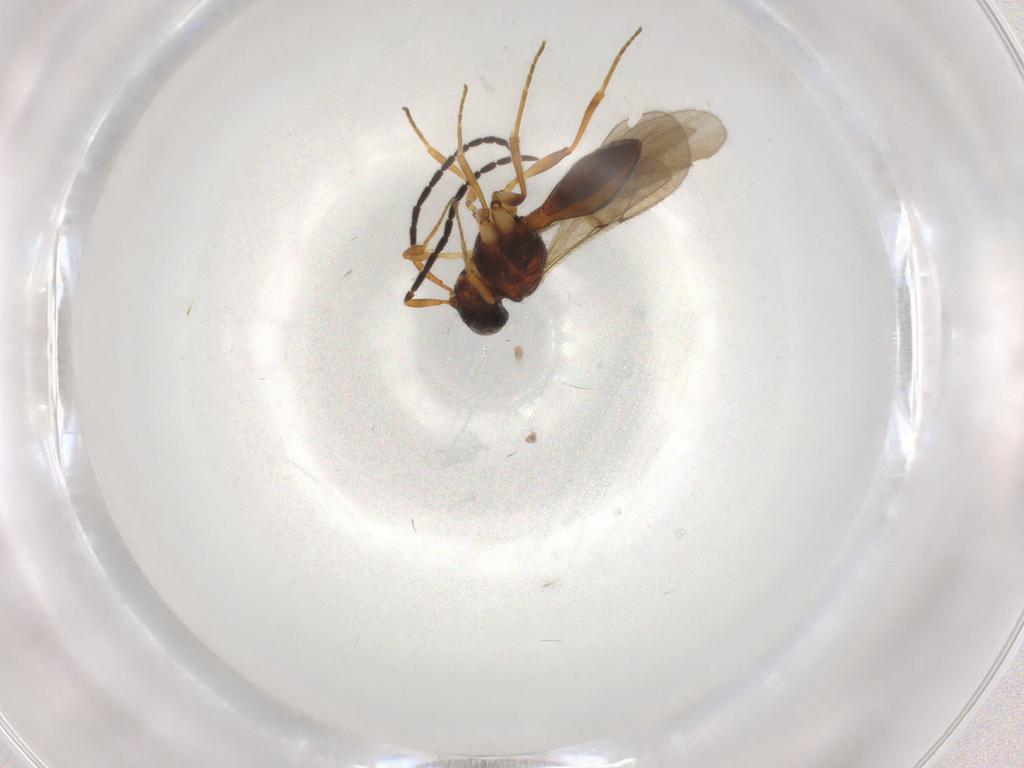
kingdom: Animalia
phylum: Arthropoda
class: Insecta
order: Hymenoptera
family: Scelionidae
